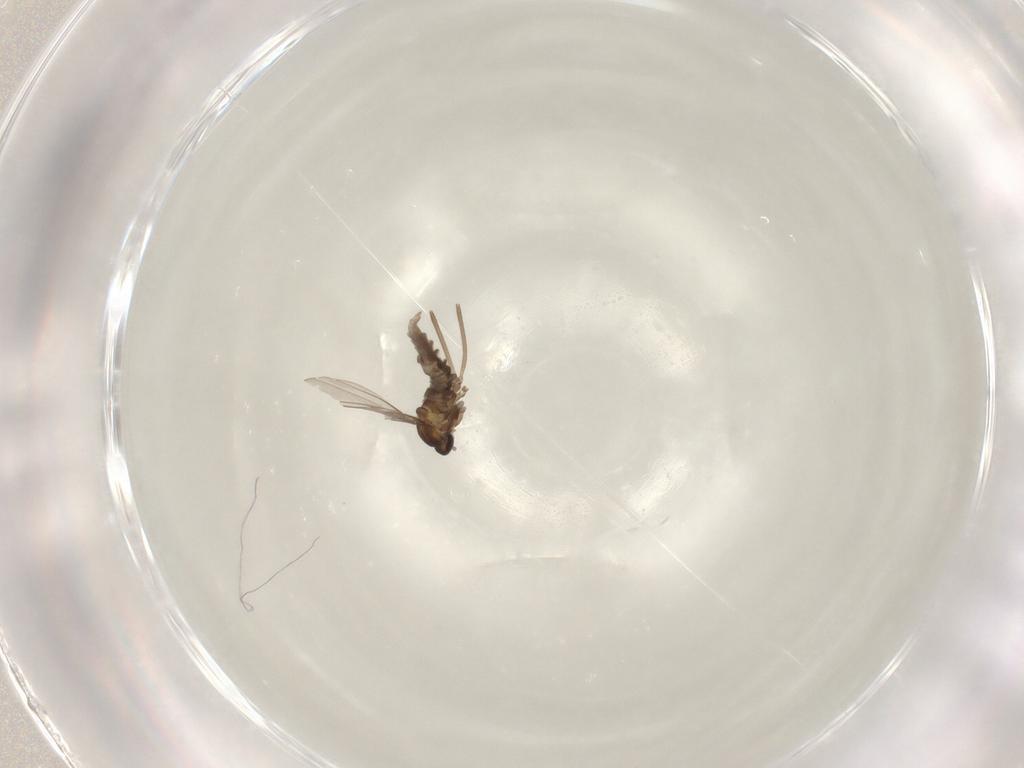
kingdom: Animalia
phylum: Arthropoda
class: Insecta
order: Diptera
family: Cecidomyiidae
